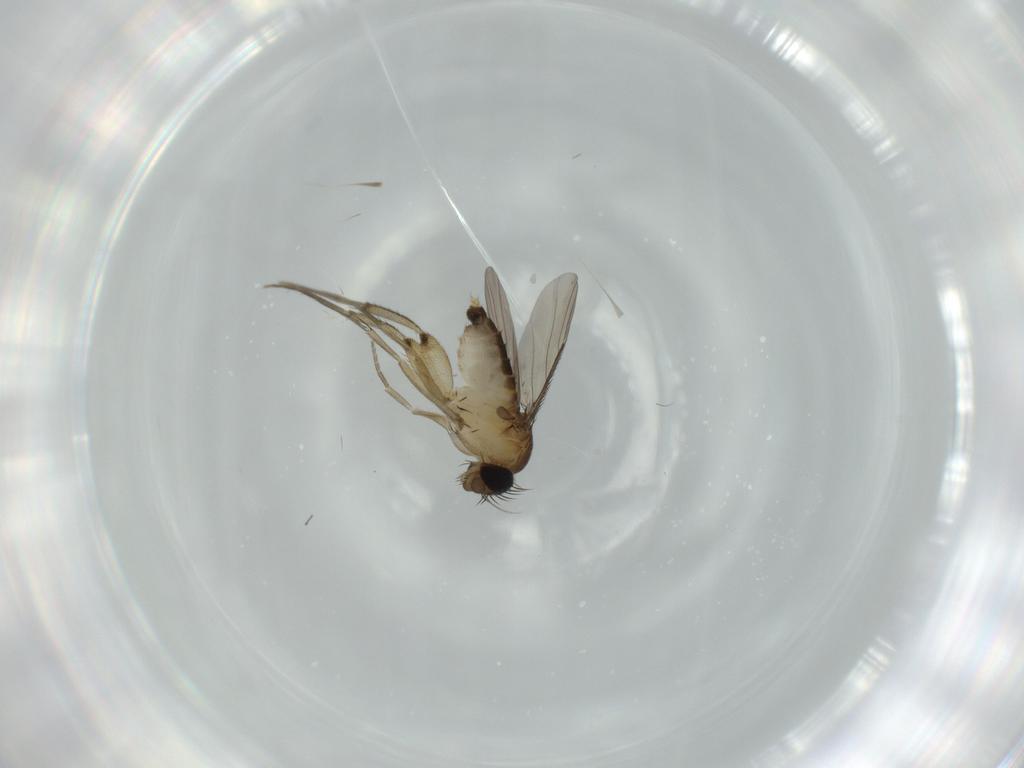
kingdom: Animalia
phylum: Arthropoda
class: Insecta
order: Diptera
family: Phoridae
